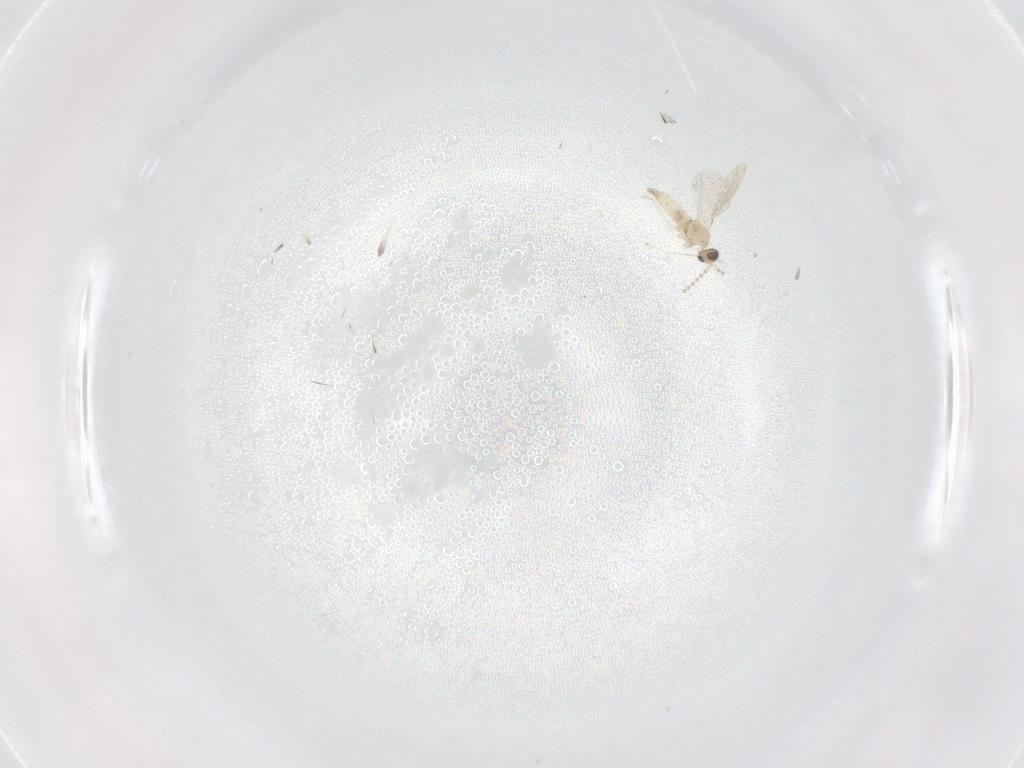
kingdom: Animalia
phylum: Arthropoda
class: Insecta
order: Diptera
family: Cecidomyiidae
